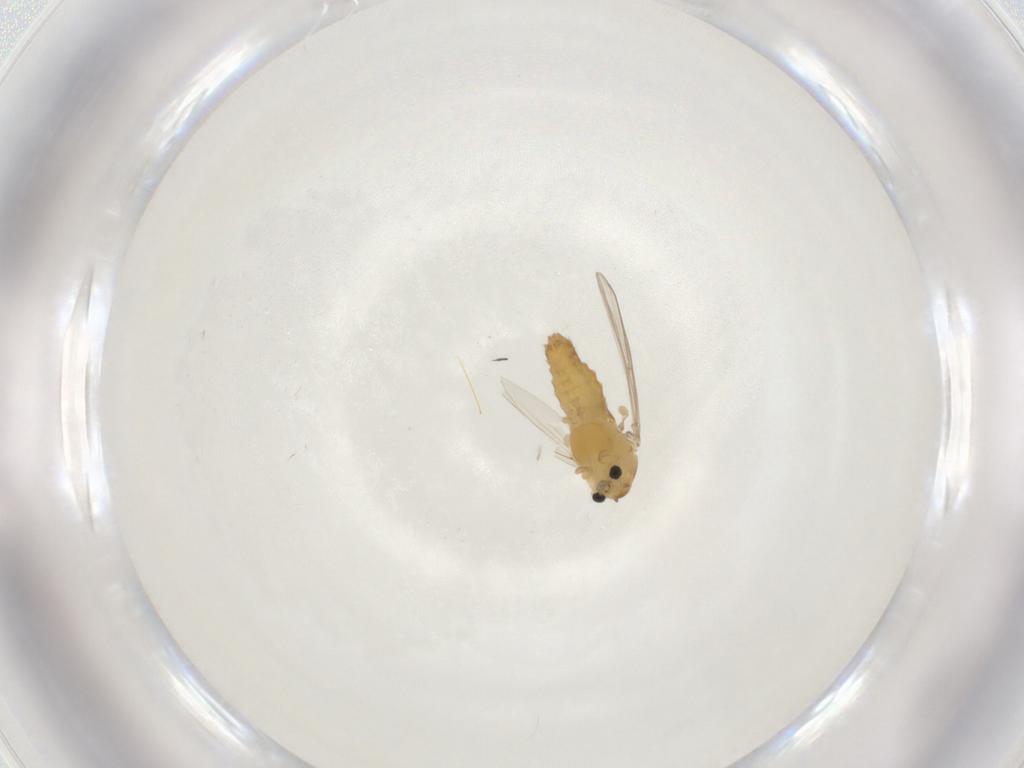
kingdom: Animalia
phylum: Arthropoda
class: Insecta
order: Diptera
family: Chironomidae
